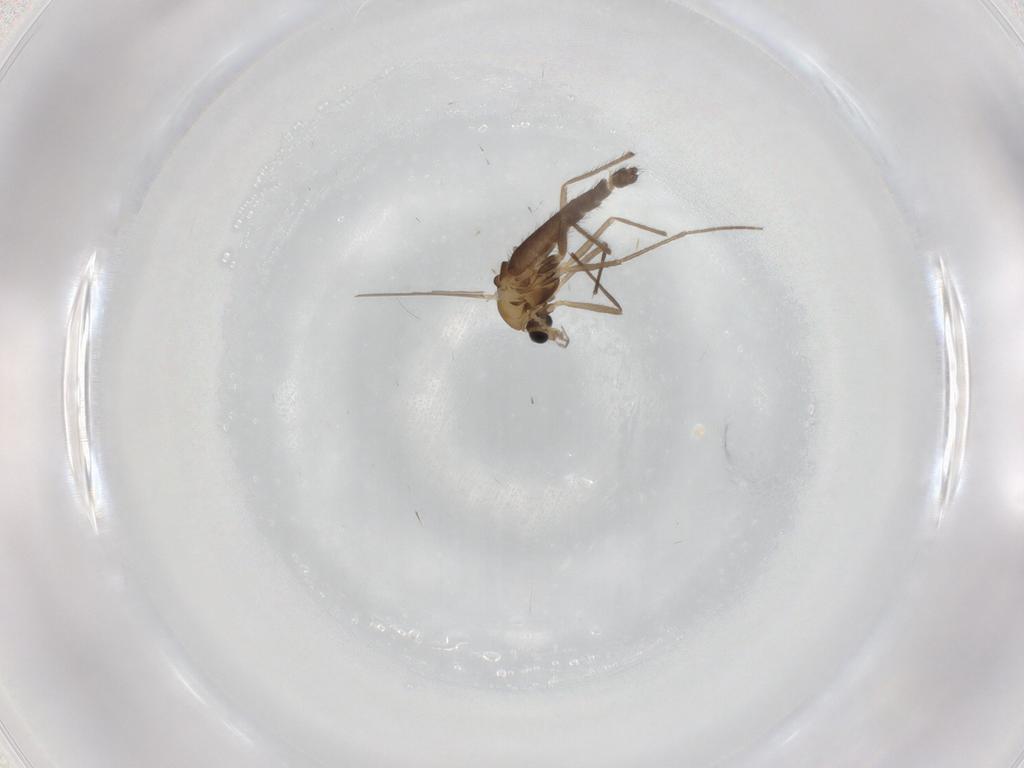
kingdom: Animalia
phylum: Arthropoda
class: Insecta
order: Diptera
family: Chironomidae
